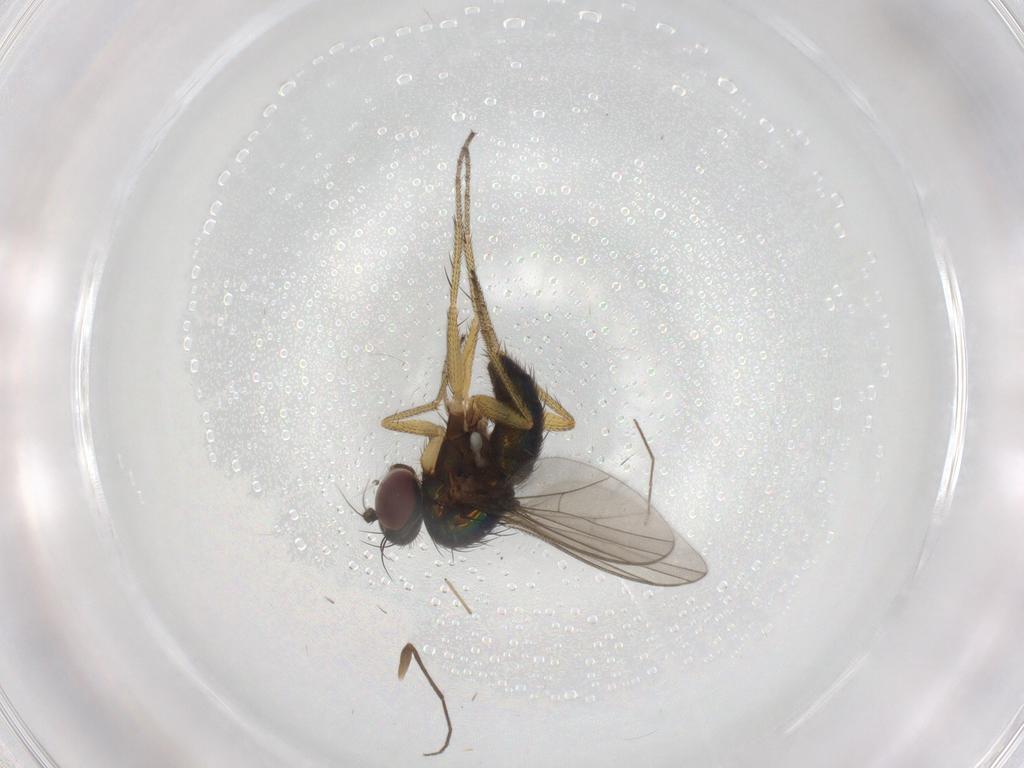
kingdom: Animalia
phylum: Arthropoda
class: Insecta
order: Diptera
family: Dolichopodidae
